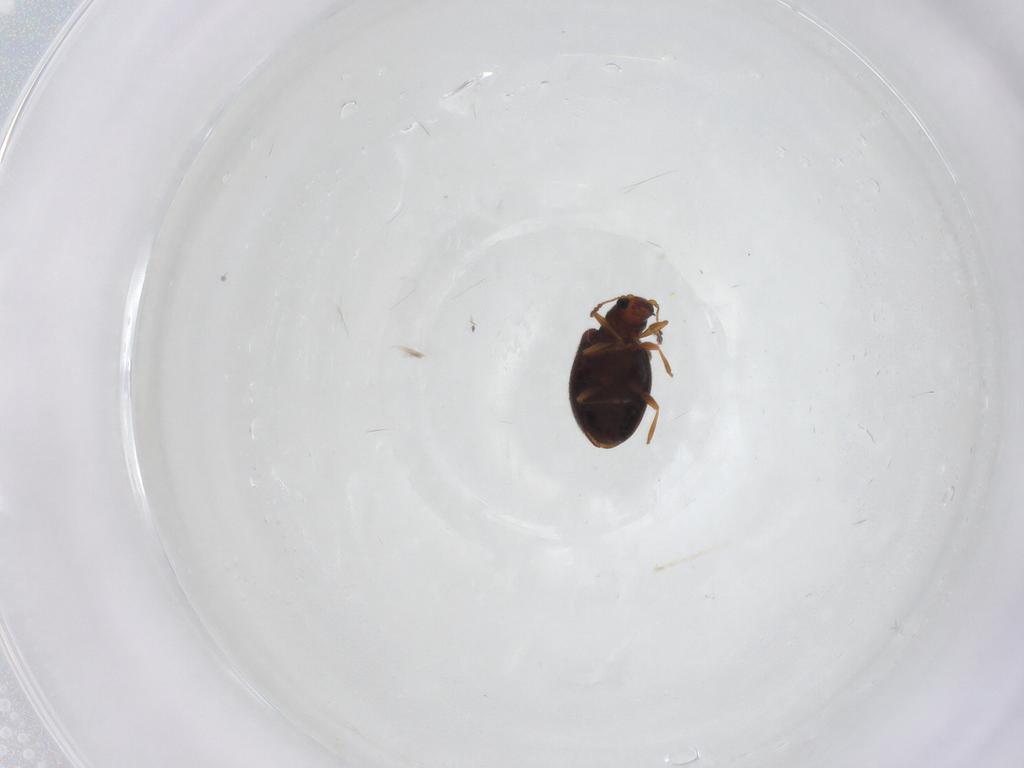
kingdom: Animalia
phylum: Arthropoda
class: Insecta
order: Coleoptera
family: Latridiidae
